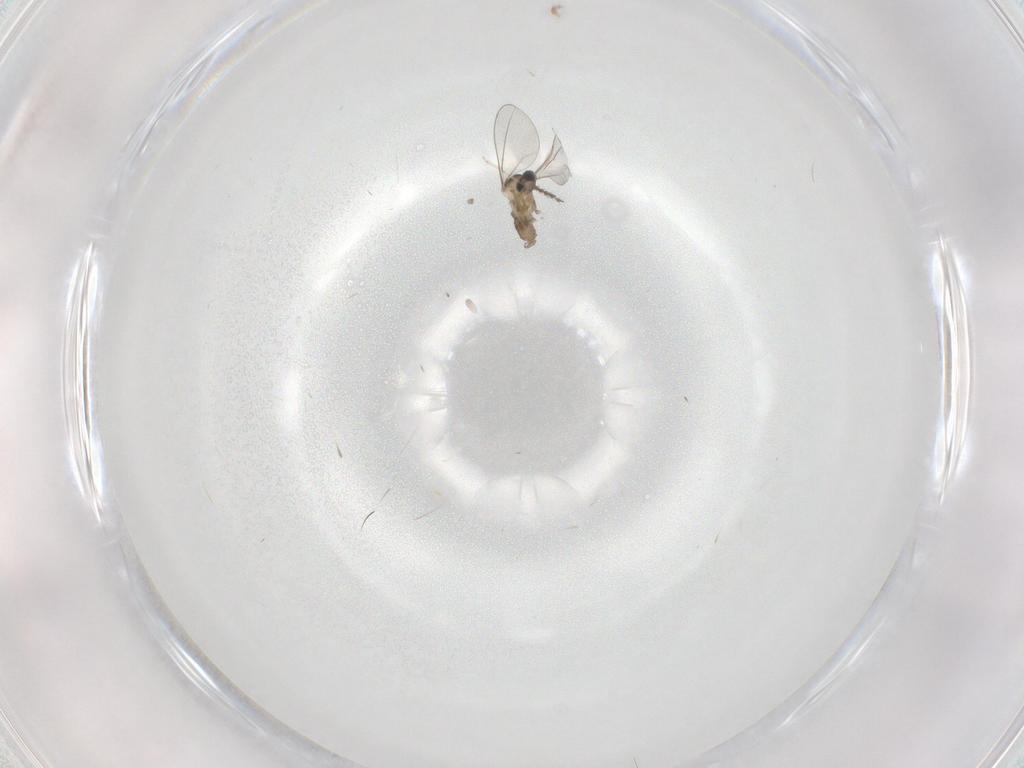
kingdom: Animalia
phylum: Arthropoda
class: Insecta
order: Diptera
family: Cecidomyiidae
